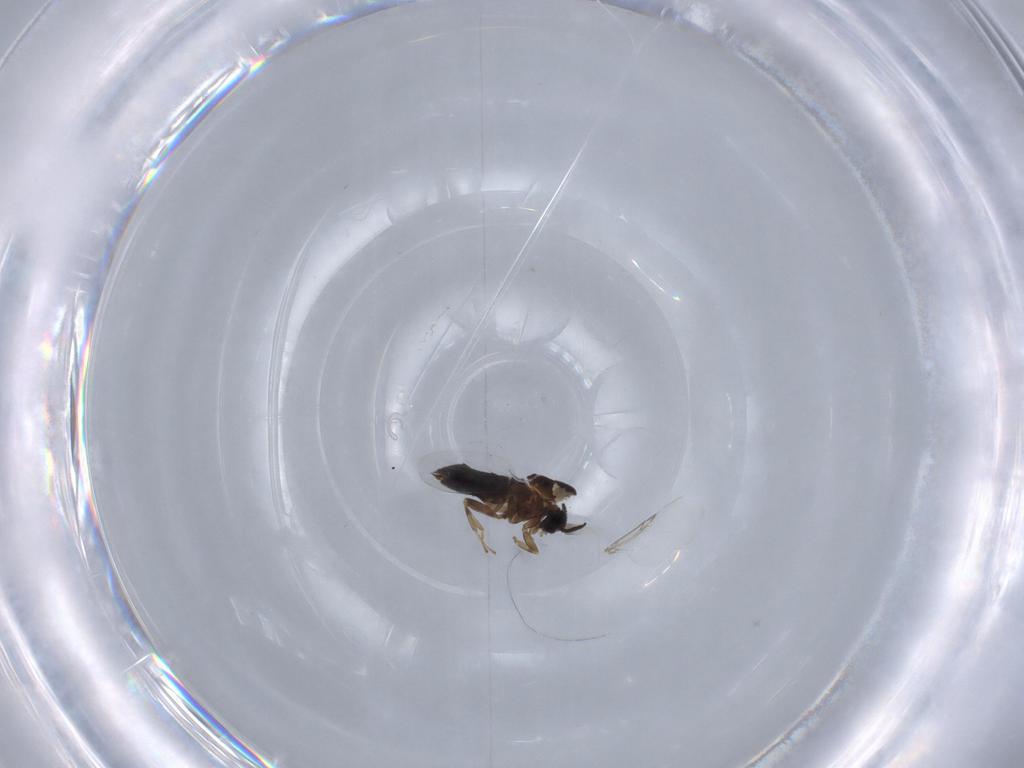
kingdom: Animalia
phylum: Arthropoda
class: Insecta
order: Diptera
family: Scatopsidae
